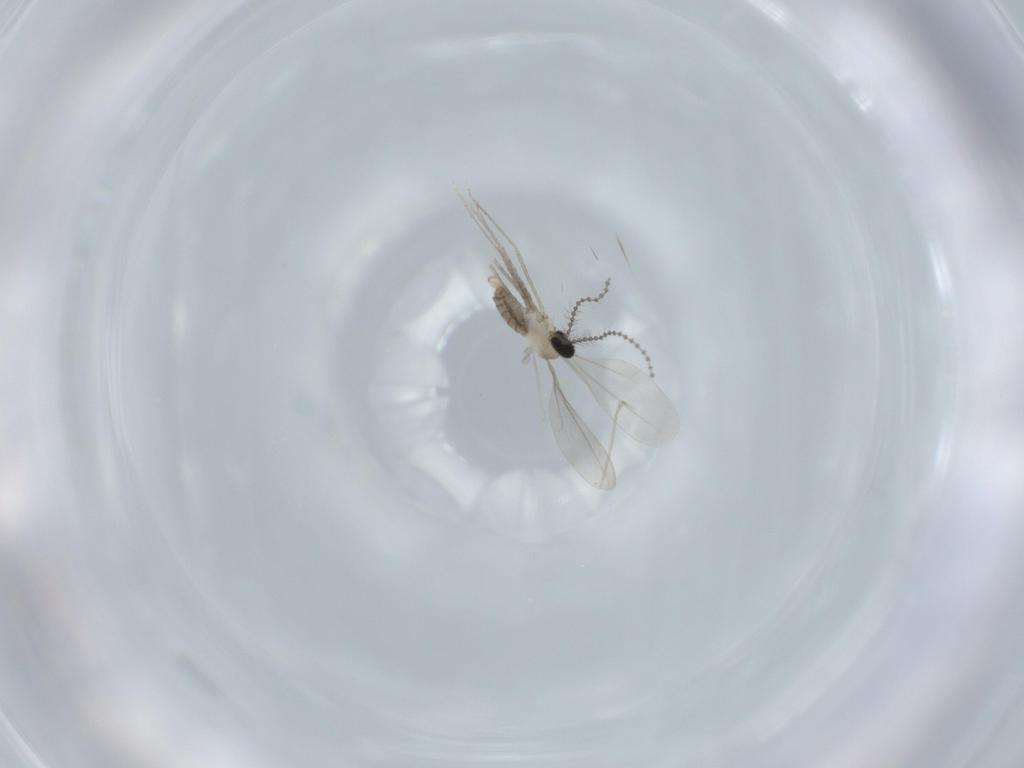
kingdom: Animalia
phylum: Arthropoda
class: Insecta
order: Diptera
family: Cecidomyiidae
